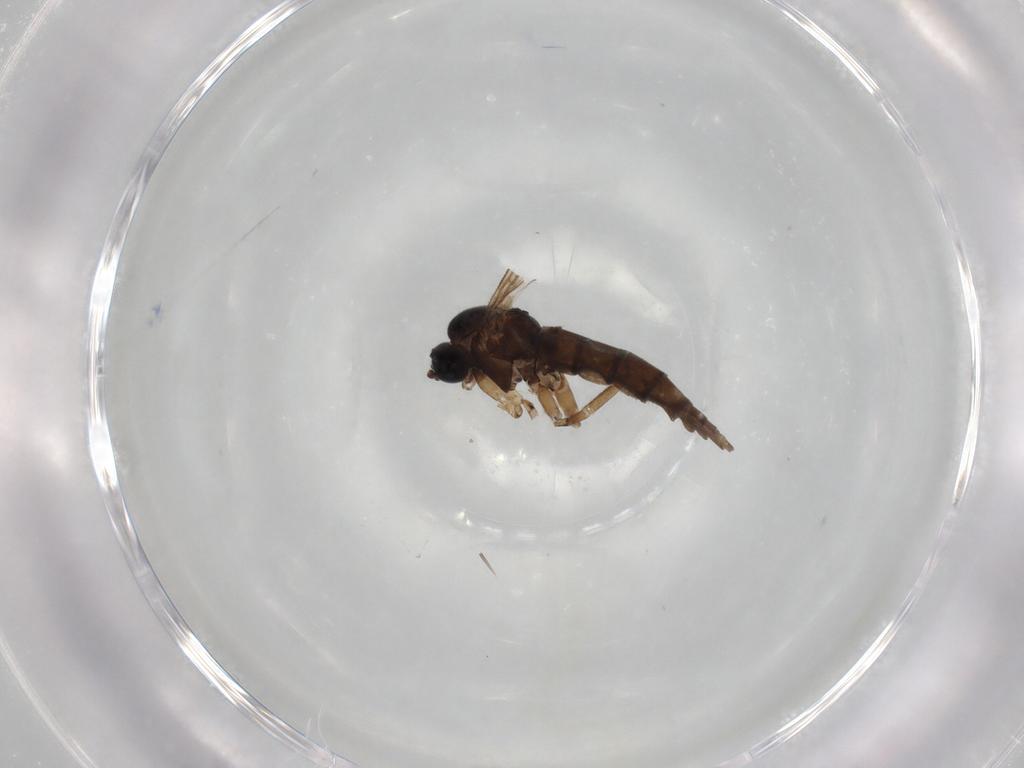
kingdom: Animalia
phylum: Arthropoda
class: Insecta
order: Diptera
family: Sciaridae
